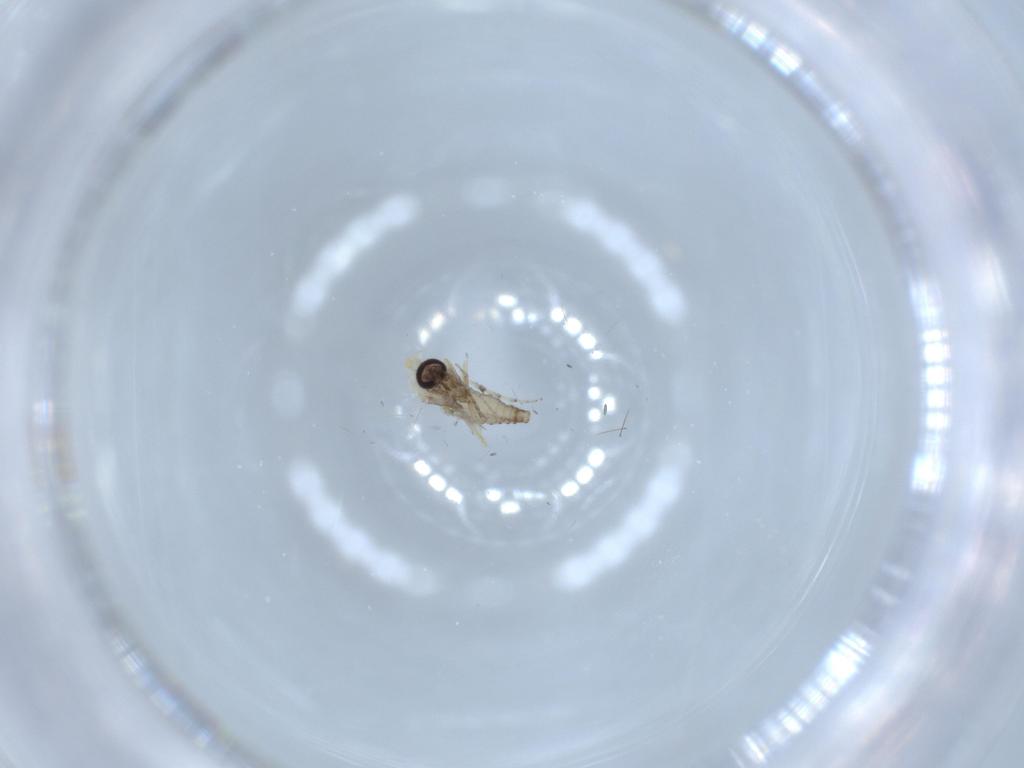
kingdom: Animalia
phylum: Arthropoda
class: Insecta
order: Diptera
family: Ceratopogonidae
